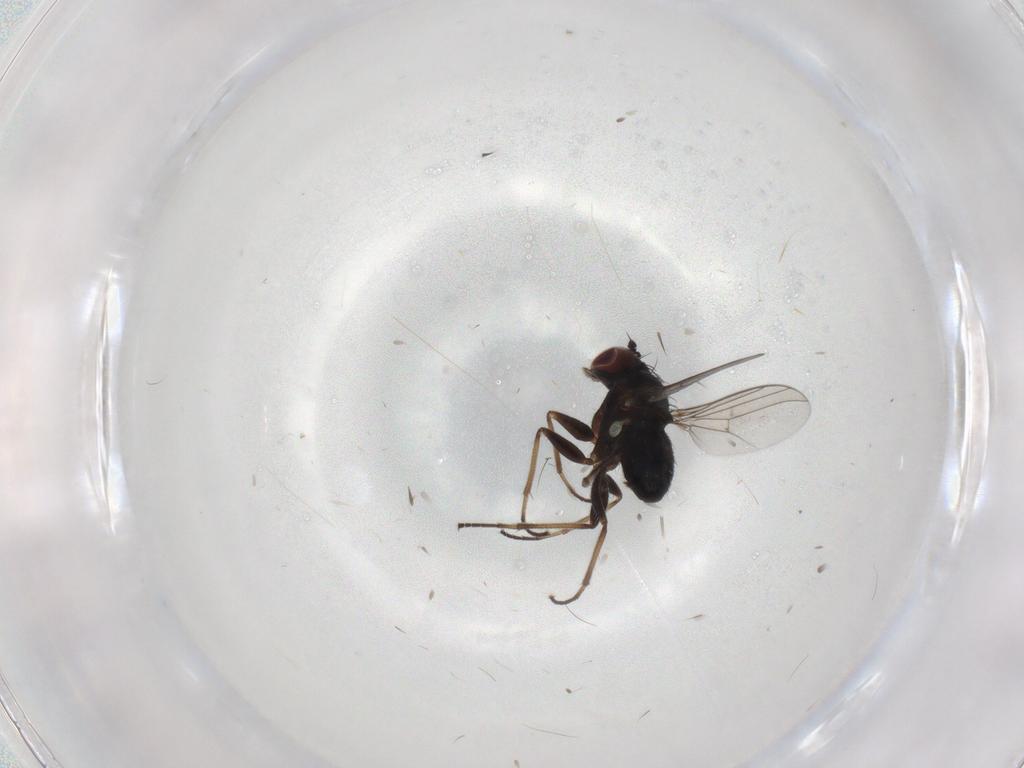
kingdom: Animalia
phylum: Arthropoda
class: Insecta
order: Diptera
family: Dolichopodidae
